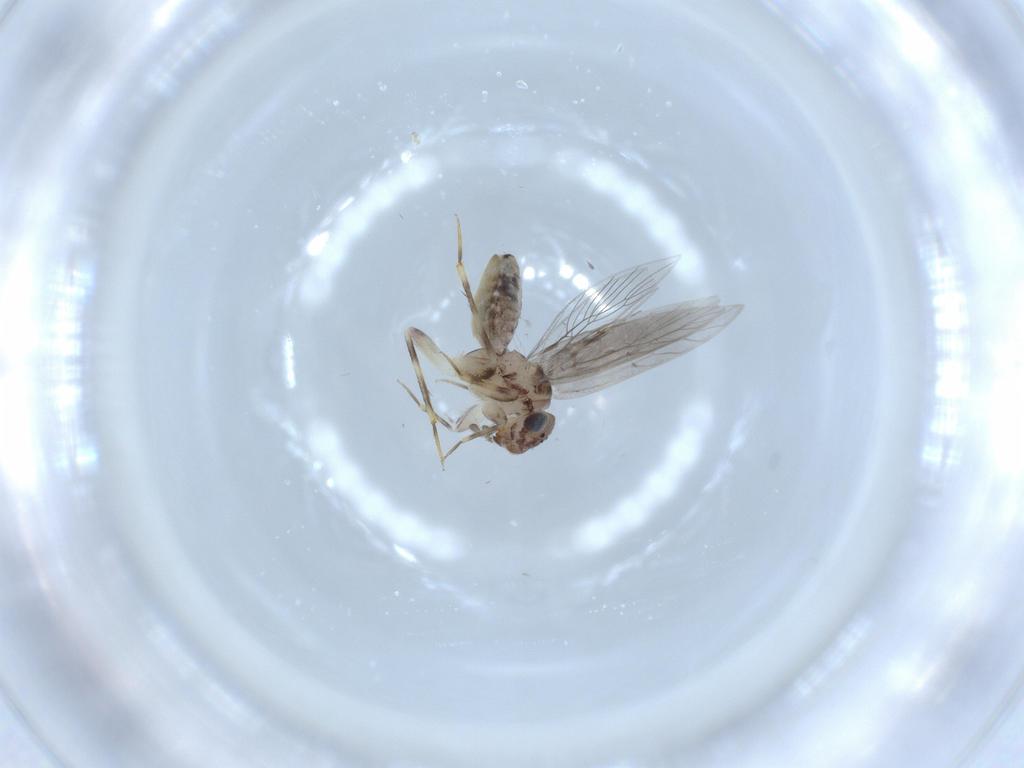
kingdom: Animalia
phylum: Arthropoda
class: Insecta
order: Psocodea
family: Lepidopsocidae
